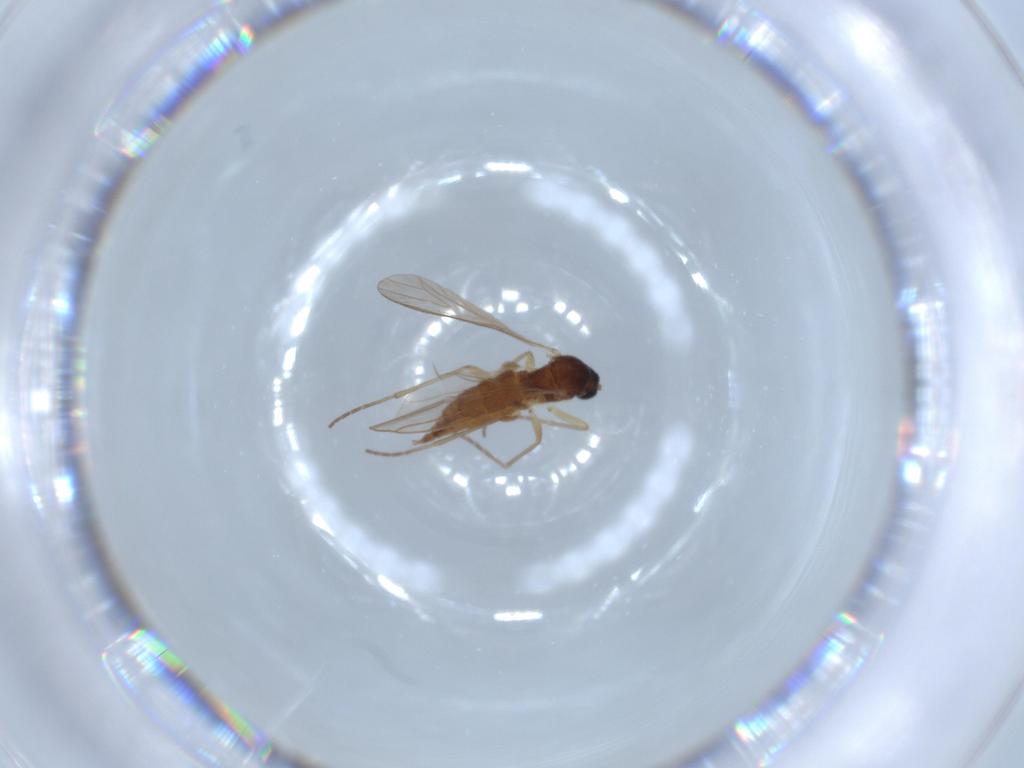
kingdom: Animalia
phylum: Arthropoda
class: Insecta
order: Diptera
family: Sciaridae
